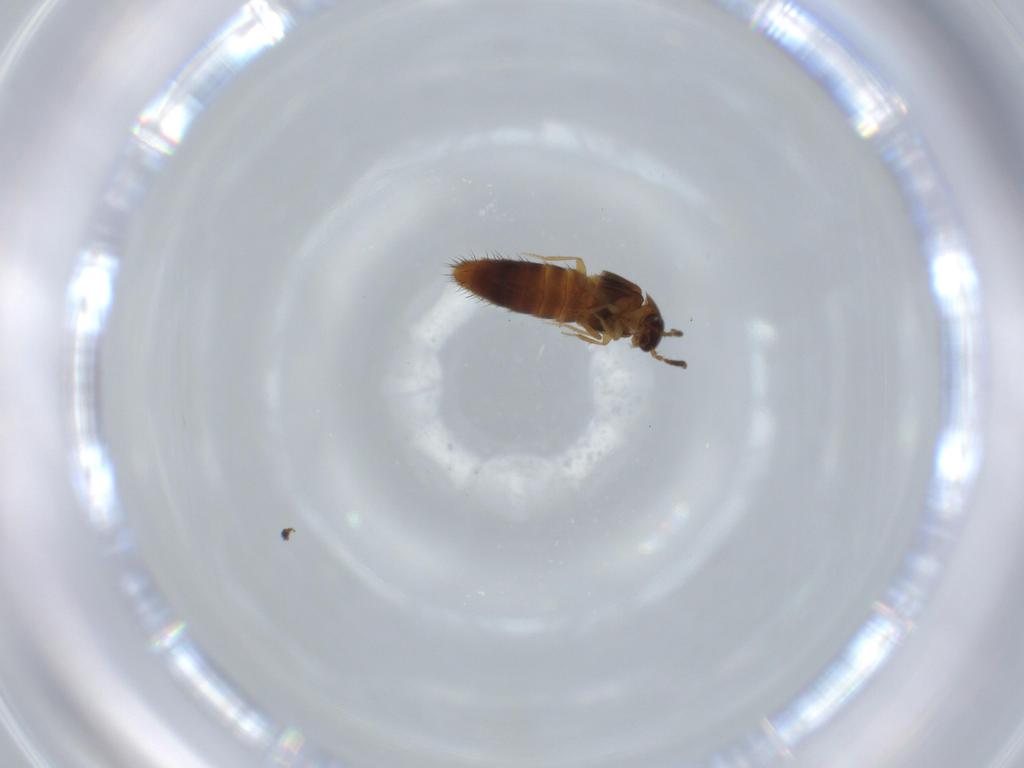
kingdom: Animalia
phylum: Arthropoda
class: Insecta
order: Coleoptera
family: Staphylinidae
